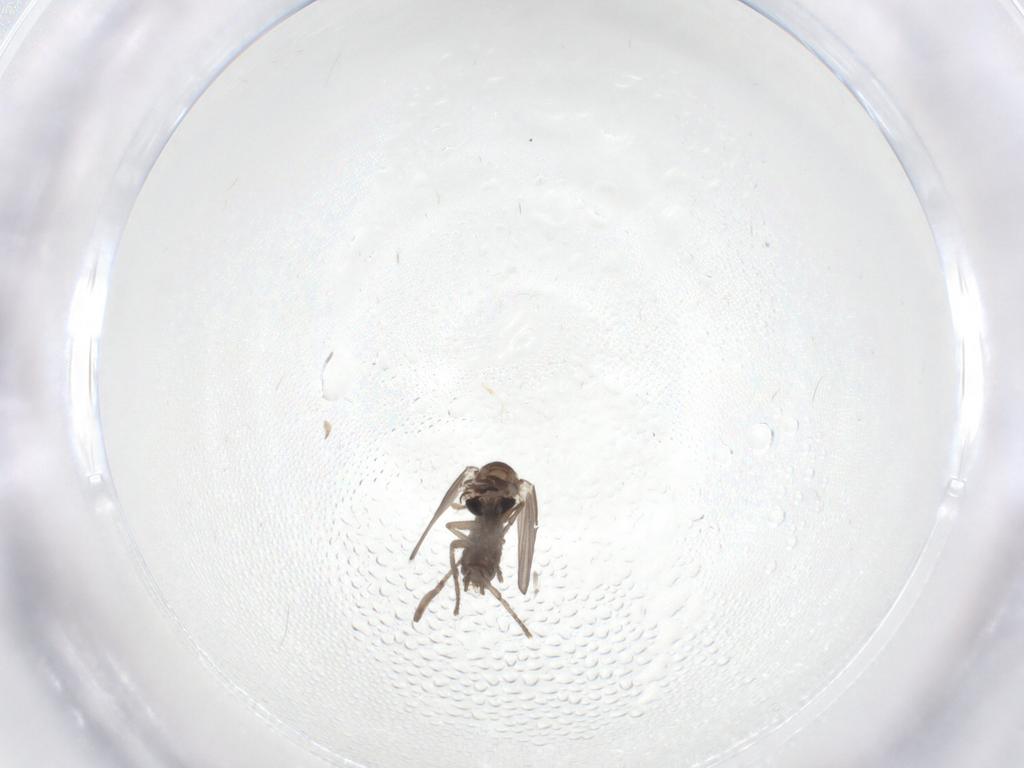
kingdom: Animalia
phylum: Arthropoda
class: Insecta
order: Diptera
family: Psychodidae
